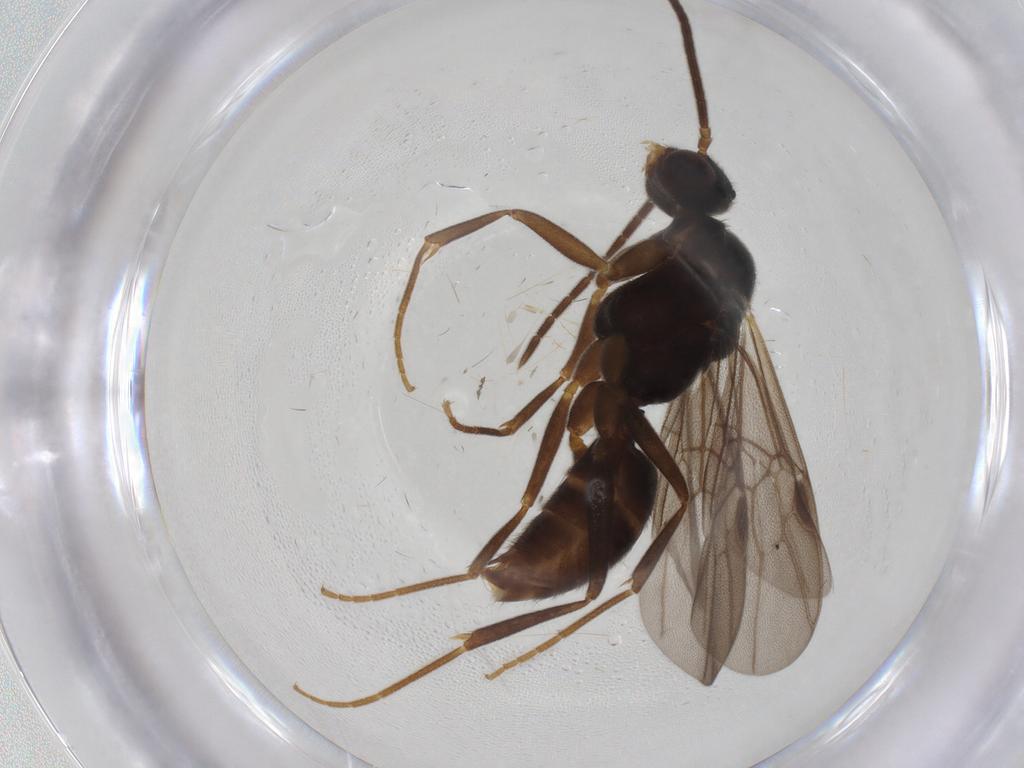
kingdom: Animalia
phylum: Arthropoda
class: Insecta
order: Hymenoptera
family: Formicidae
